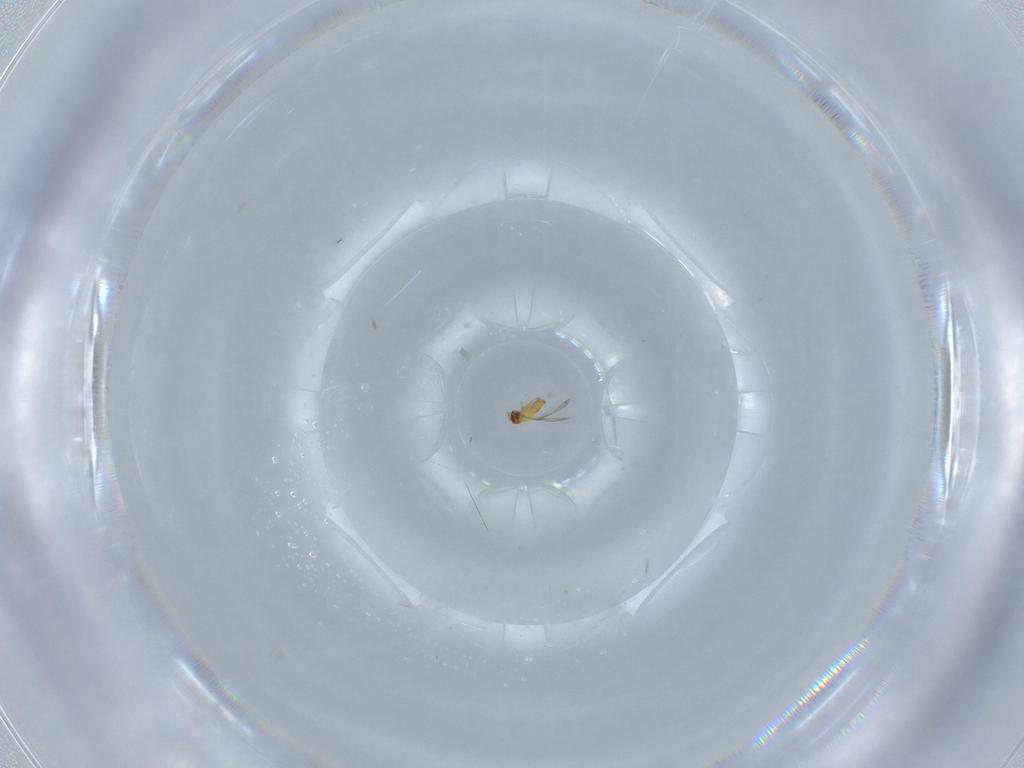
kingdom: Animalia
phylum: Arthropoda
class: Insecta
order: Hymenoptera
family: Trichogrammatidae
